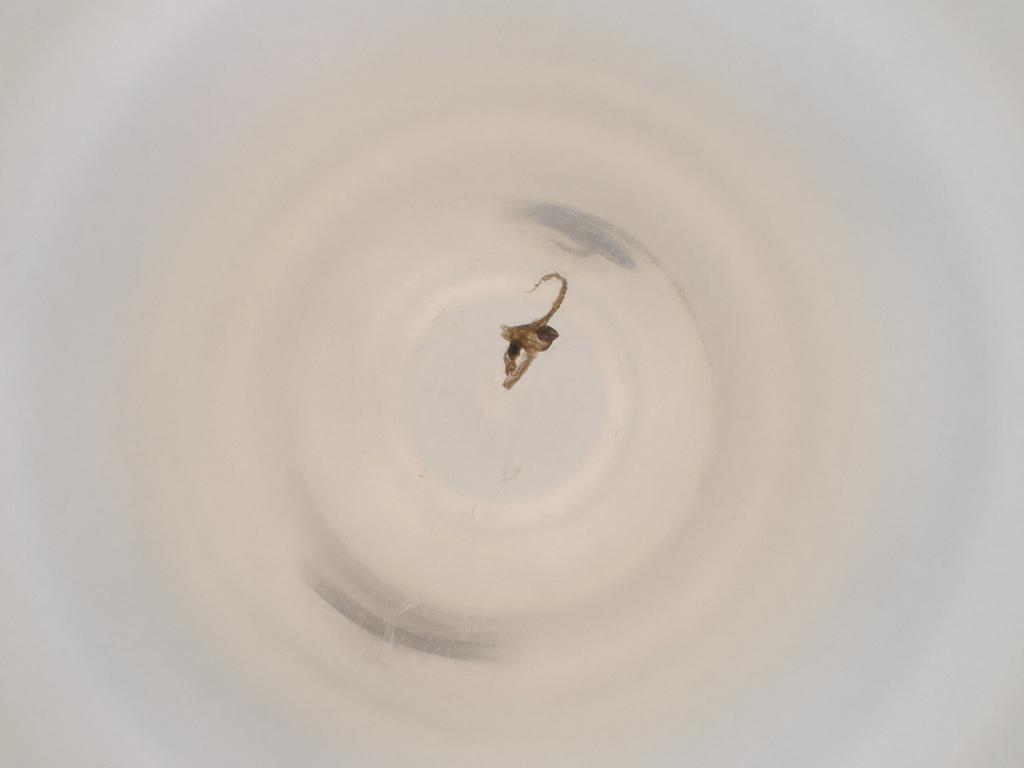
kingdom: Animalia
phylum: Arthropoda
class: Insecta
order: Diptera
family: Cecidomyiidae
